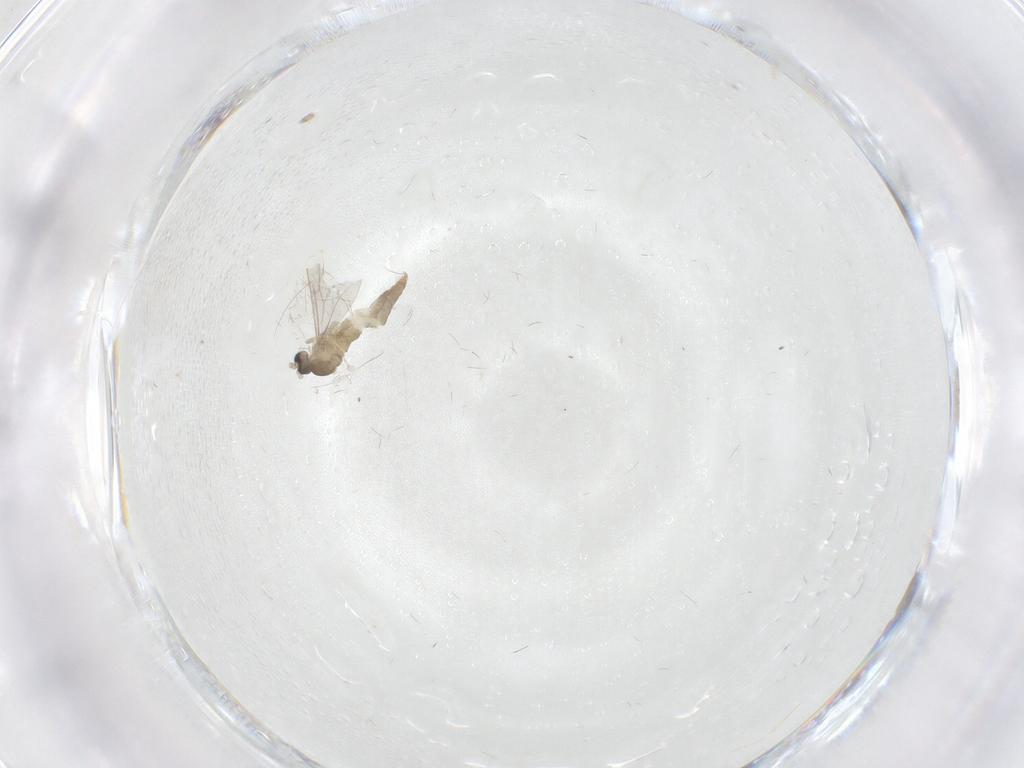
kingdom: Animalia
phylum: Arthropoda
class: Insecta
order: Diptera
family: Cecidomyiidae
